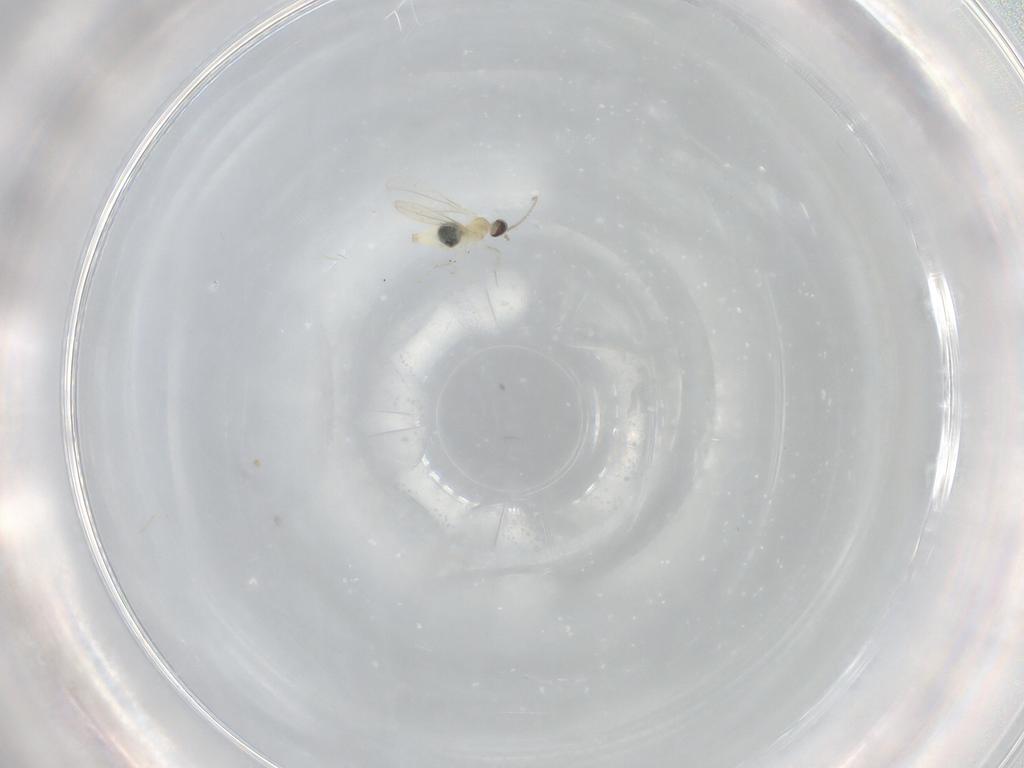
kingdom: Animalia
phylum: Arthropoda
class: Insecta
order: Diptera
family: Cecidomyiidae
